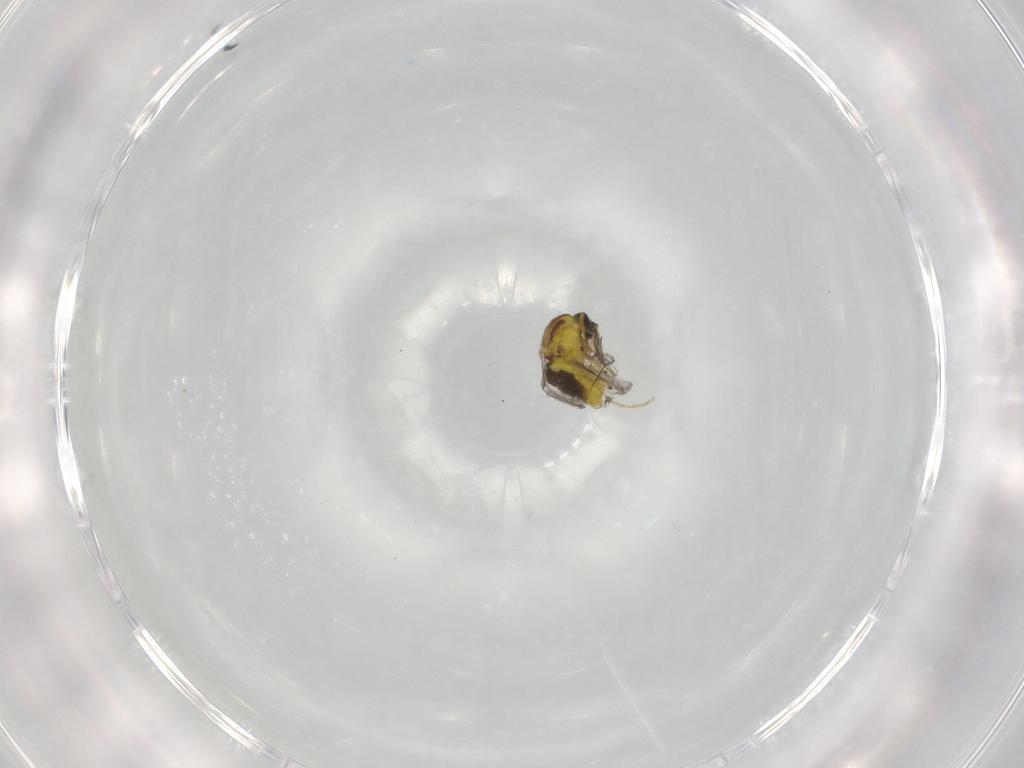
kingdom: Animalia
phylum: Arthropoda
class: Insecta
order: Diptera
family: Ceratopogonidae
